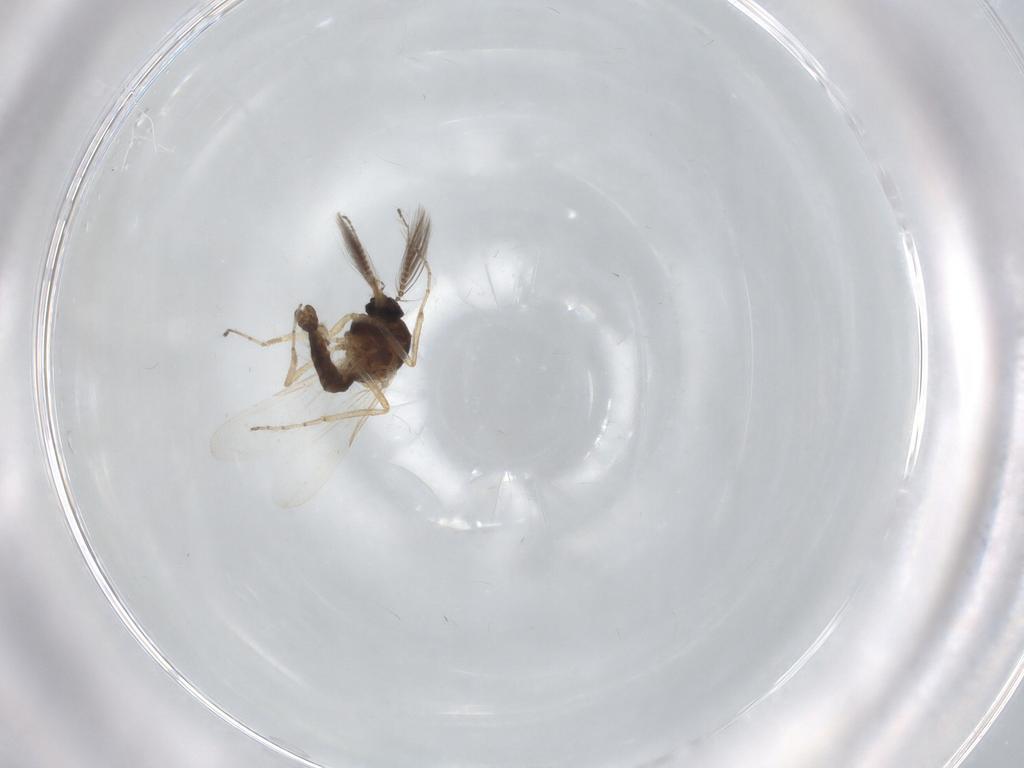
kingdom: Animalia
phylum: Arthropoda
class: Insecta
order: Diptera
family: Ceratopogonidae
